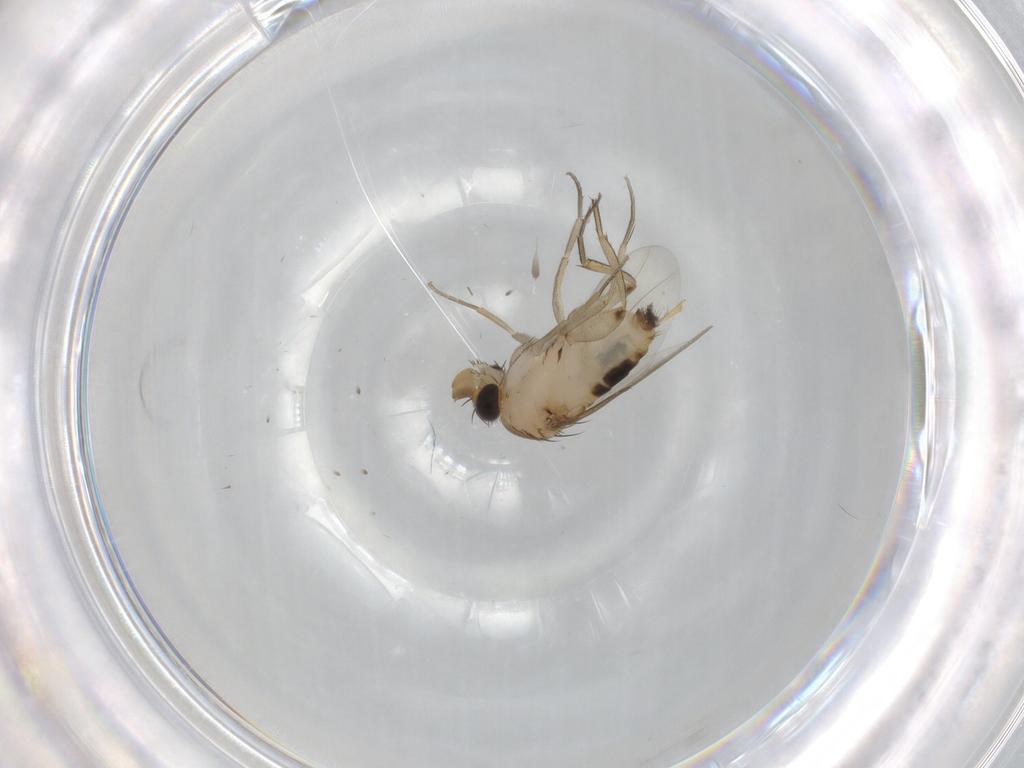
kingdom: Animalia
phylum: Arthropoda
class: Insecta
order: Diptera
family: Phoridae
